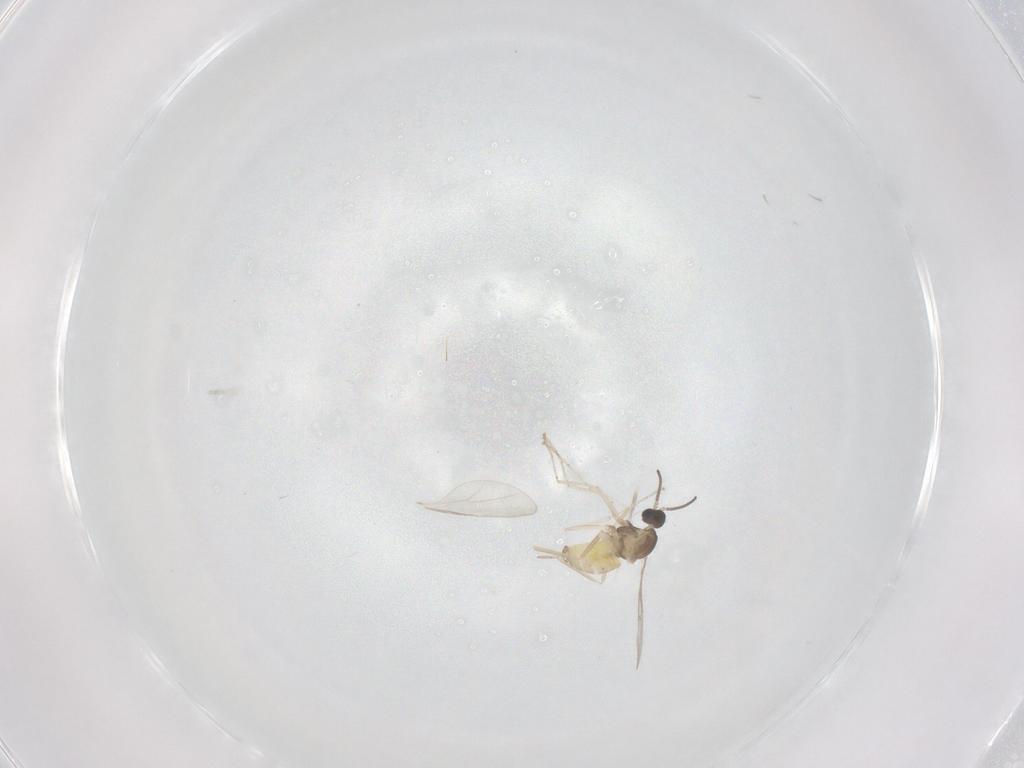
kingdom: Animalia
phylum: Arthropoda
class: Insecta
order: Diptera
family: Cecidomyiidae
